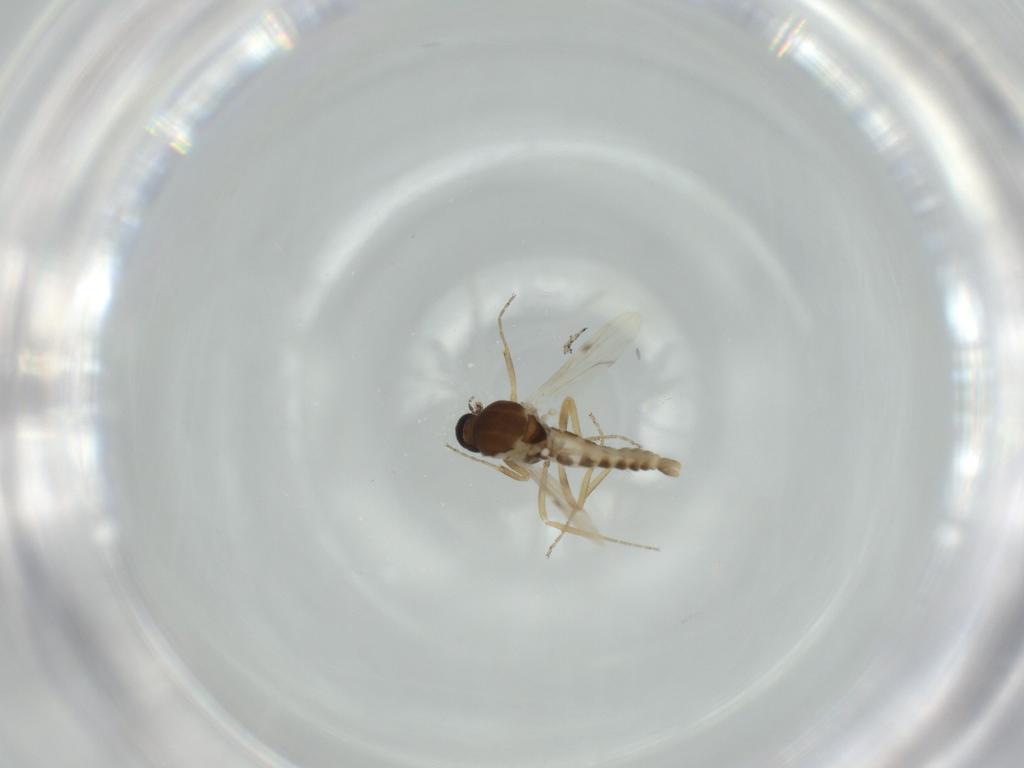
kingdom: Animalia
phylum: Arthropoda
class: Insecta
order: Diptera
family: Ceratopogonidae
